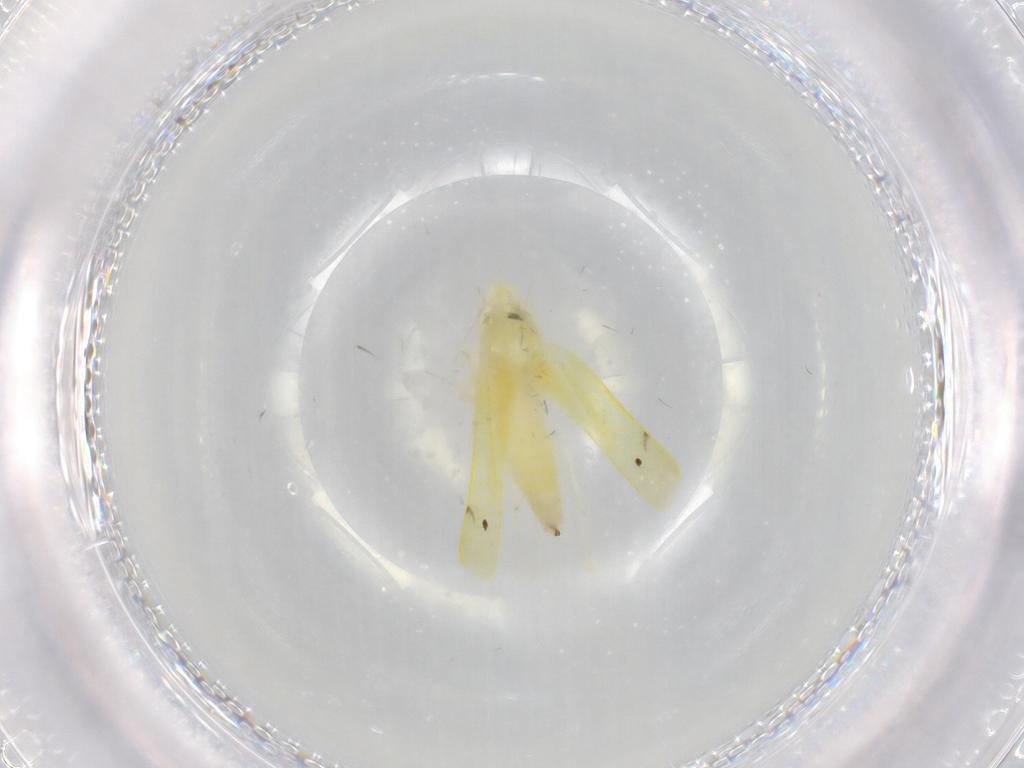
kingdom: Animalia
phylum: Arthropoda
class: Insecta
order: Hemiptera
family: Cicadellidae
